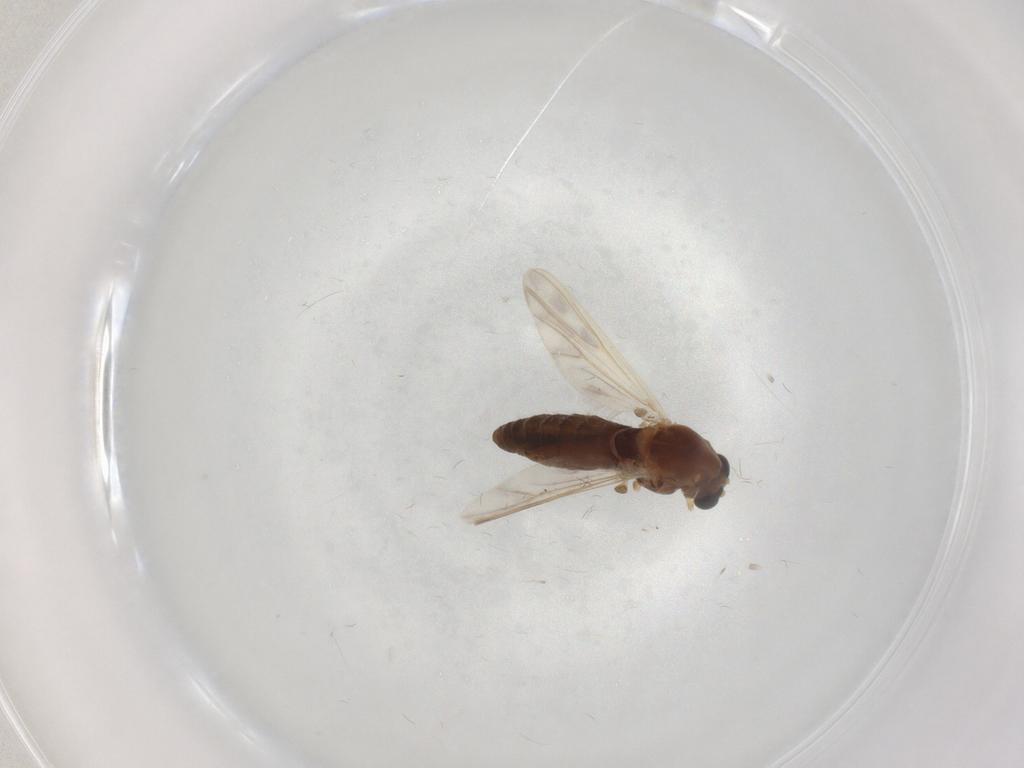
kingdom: Animalia
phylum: Arthropoda
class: Insecta
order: Diptera
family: Chironomidae
